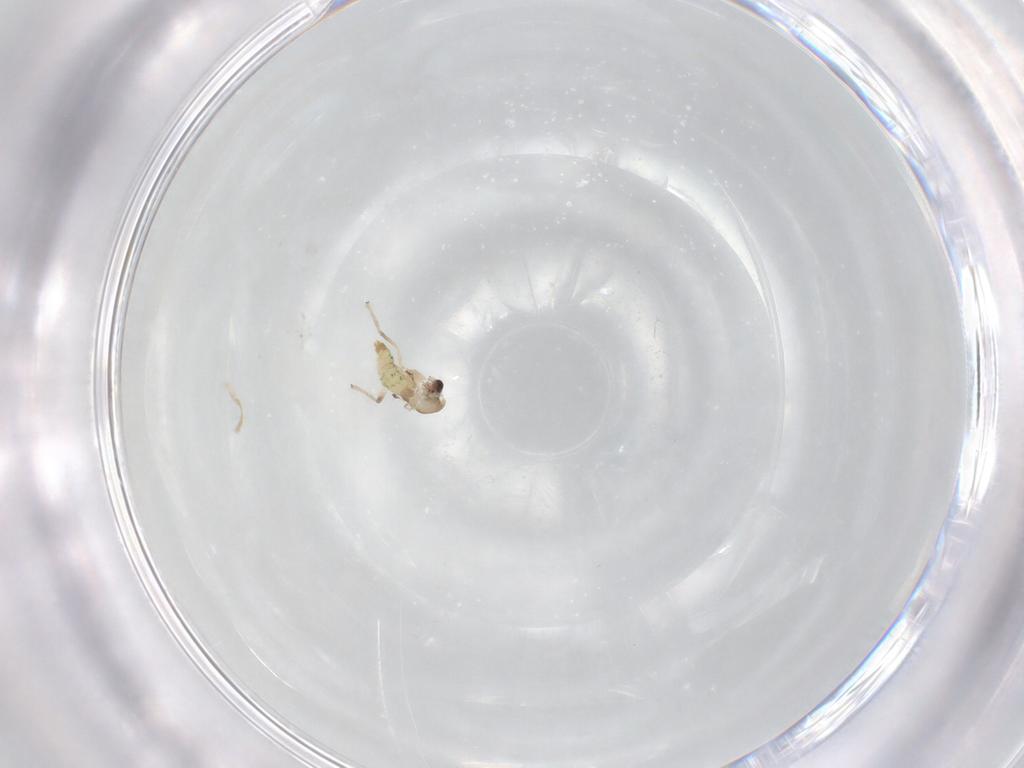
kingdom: Animalia
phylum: Arthropoda
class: Insecta
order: Diptera
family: Chironomidae
